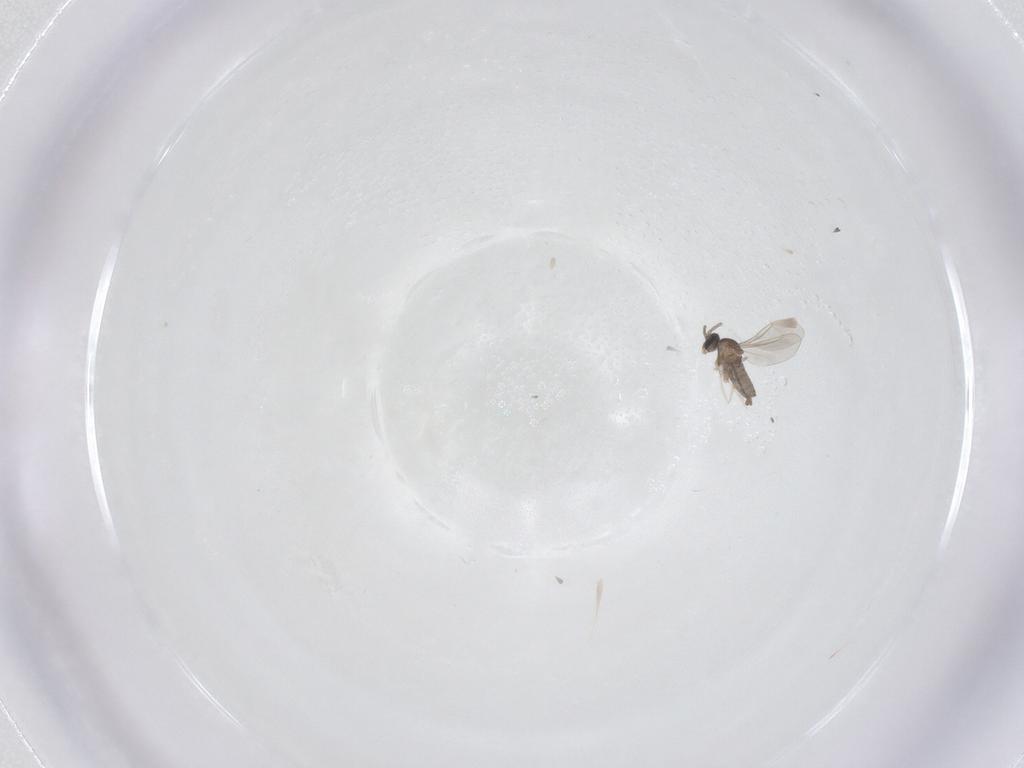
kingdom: Animalia
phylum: Arthropoda
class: Insecta
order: Diptera
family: Cecidomyiidae
